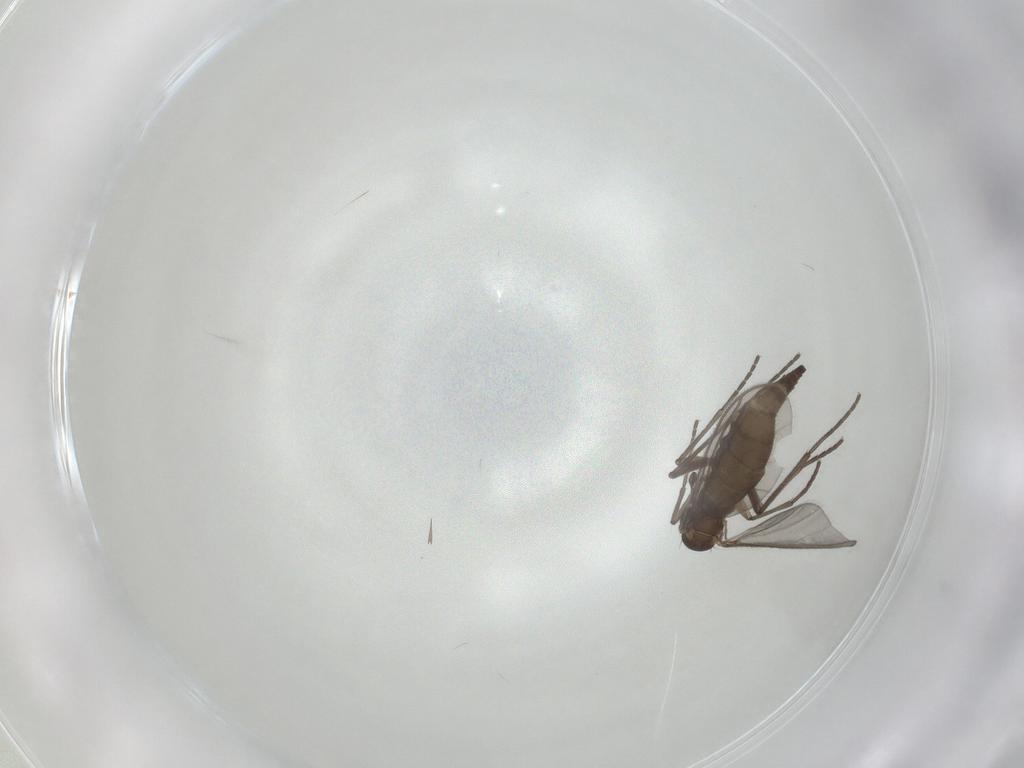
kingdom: Animalia
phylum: Arthropoda
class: Insecta
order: Diptera
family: Sciaridae
